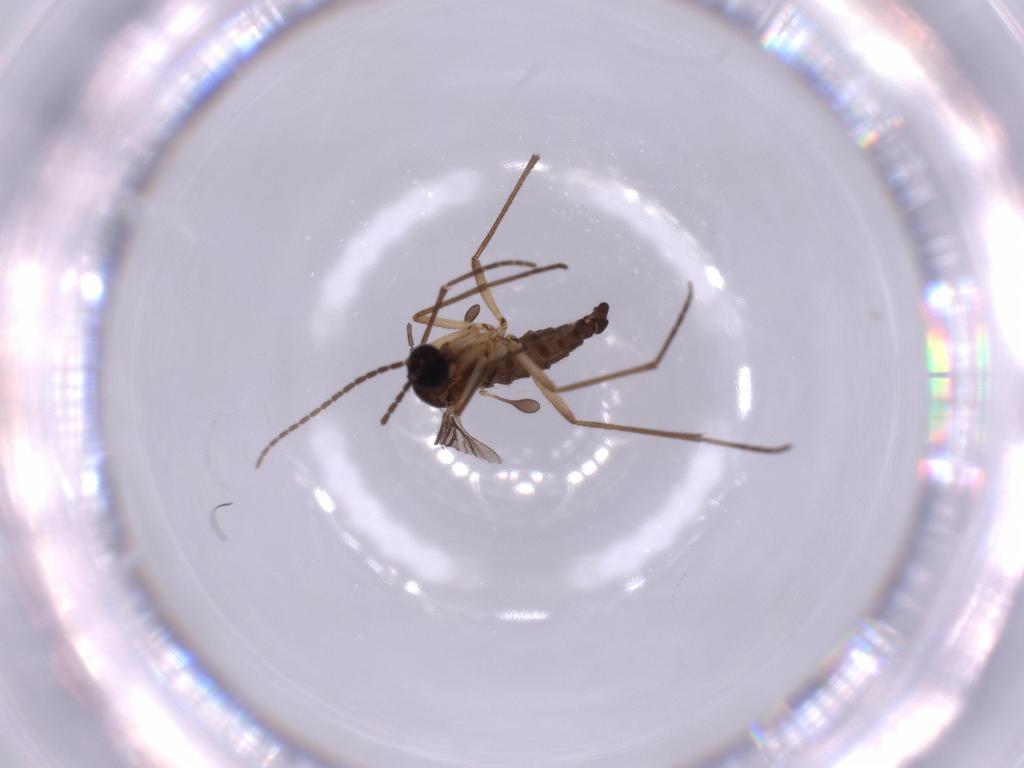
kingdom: Animalia
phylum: Arthropoda
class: Insecta
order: Diptera
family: Sciaridae
